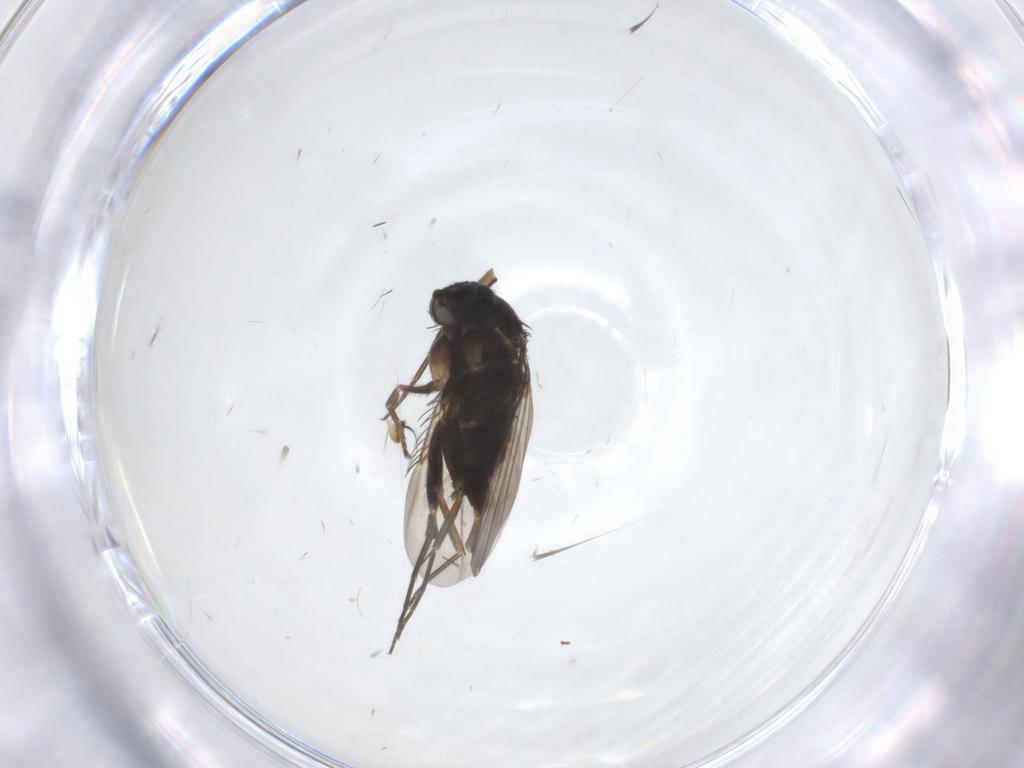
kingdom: Animalia
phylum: Arthropoda
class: Insecta
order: Diptera
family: Phoridae
